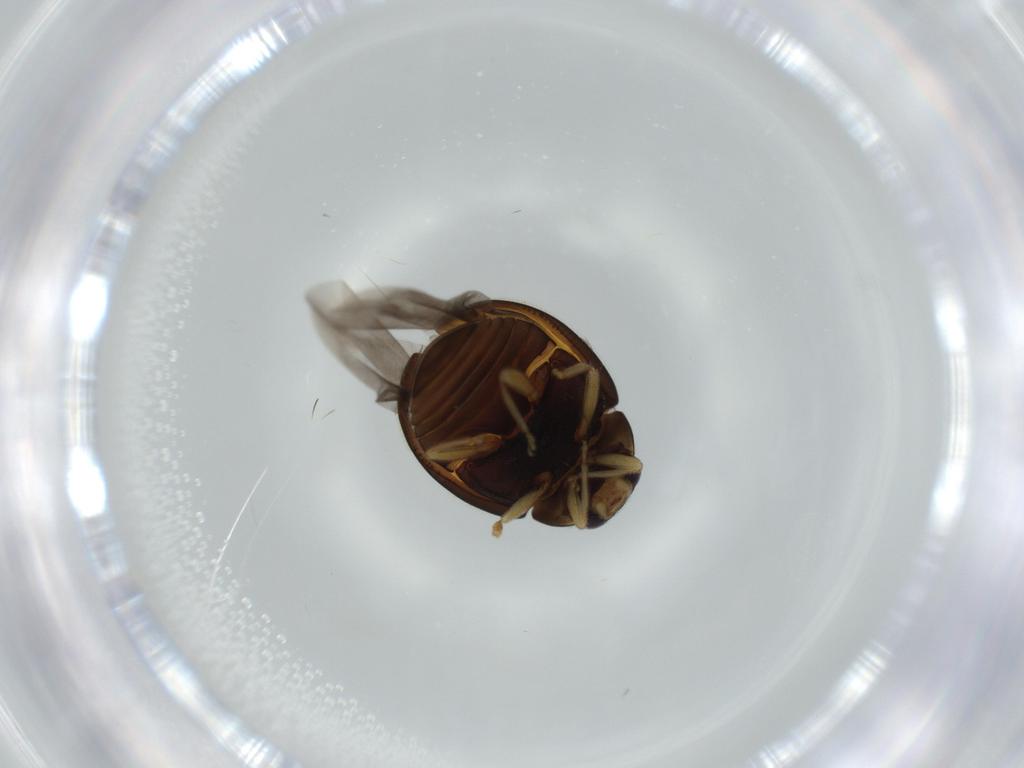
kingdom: Animalia
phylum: Arthropoda
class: Insecta
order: Coleoptera
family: Coccinellidae
